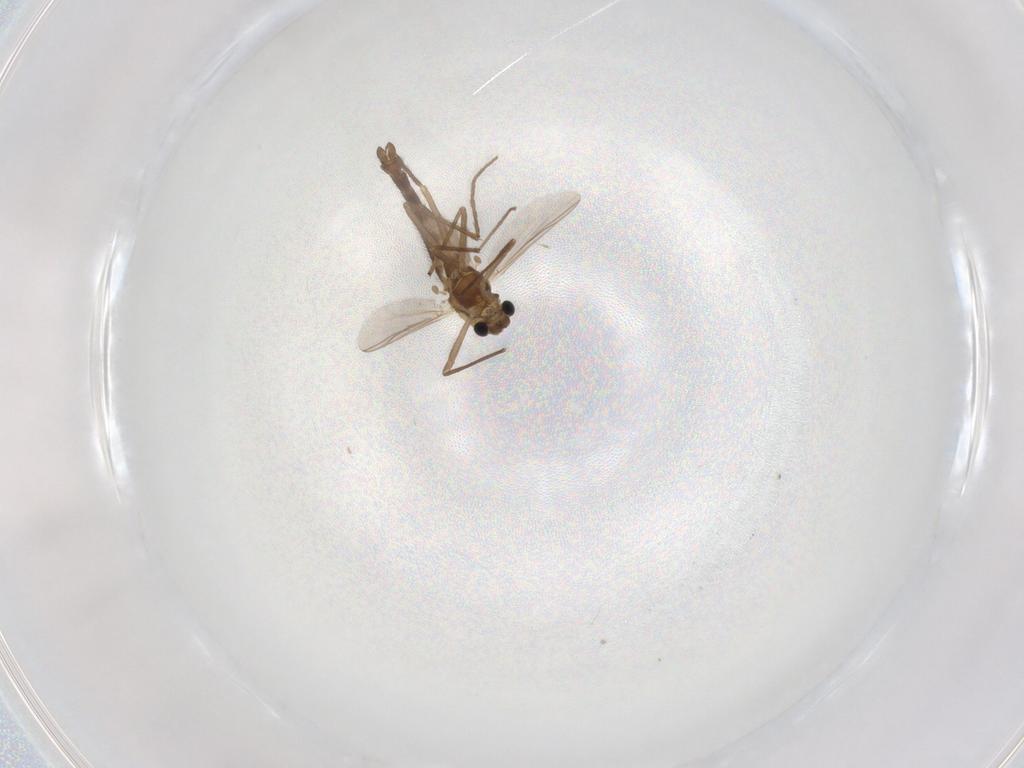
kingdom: Animalia
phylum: Arthropoda
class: Insecta
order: Diptera
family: Chironomidae
